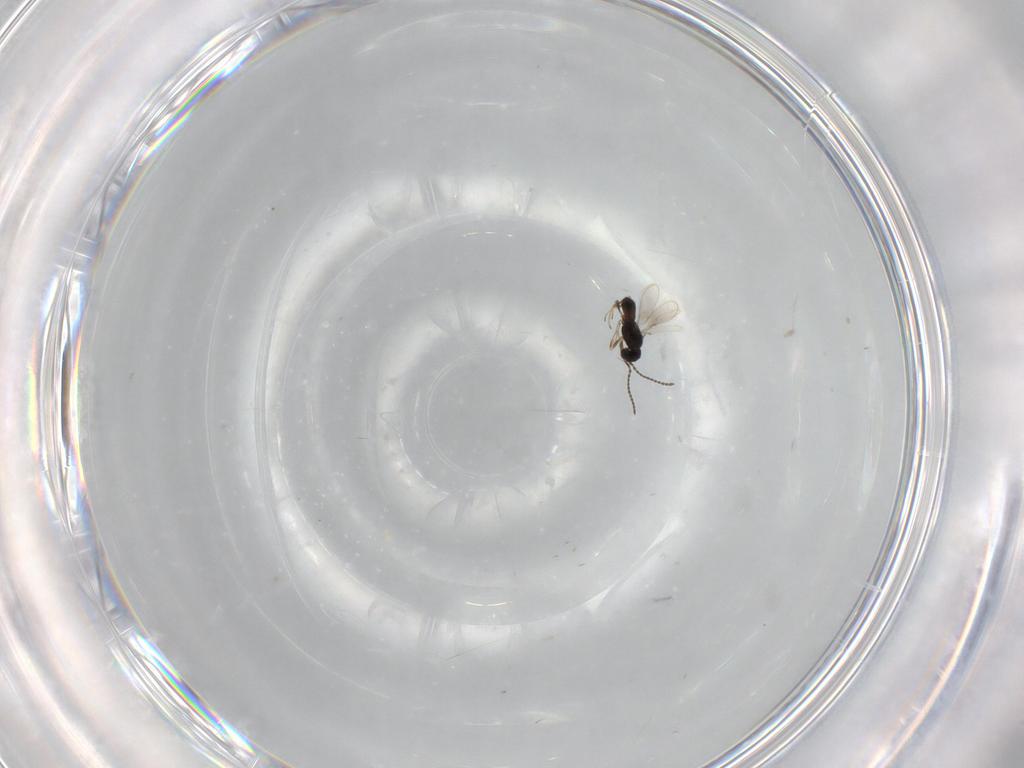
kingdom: Animalia
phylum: Arthropoda
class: Insecta
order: Hymenoptera
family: Scelionidae
